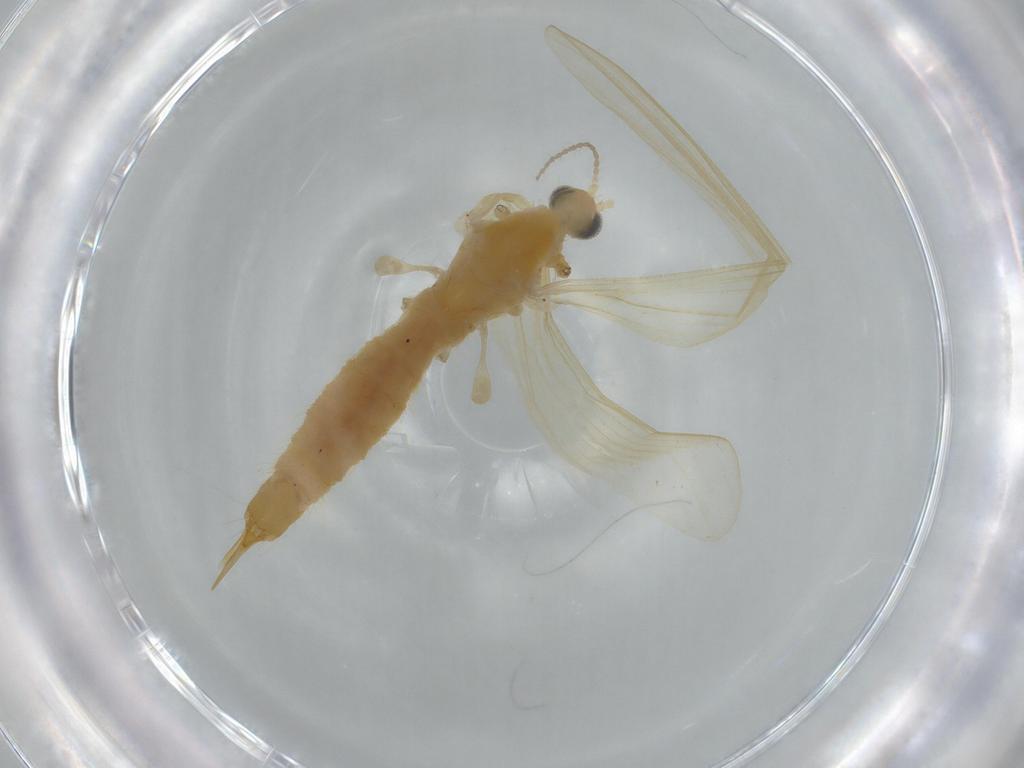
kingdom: Animalia
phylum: Arthropoda
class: Insecta
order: Diptera
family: Limoniidae
